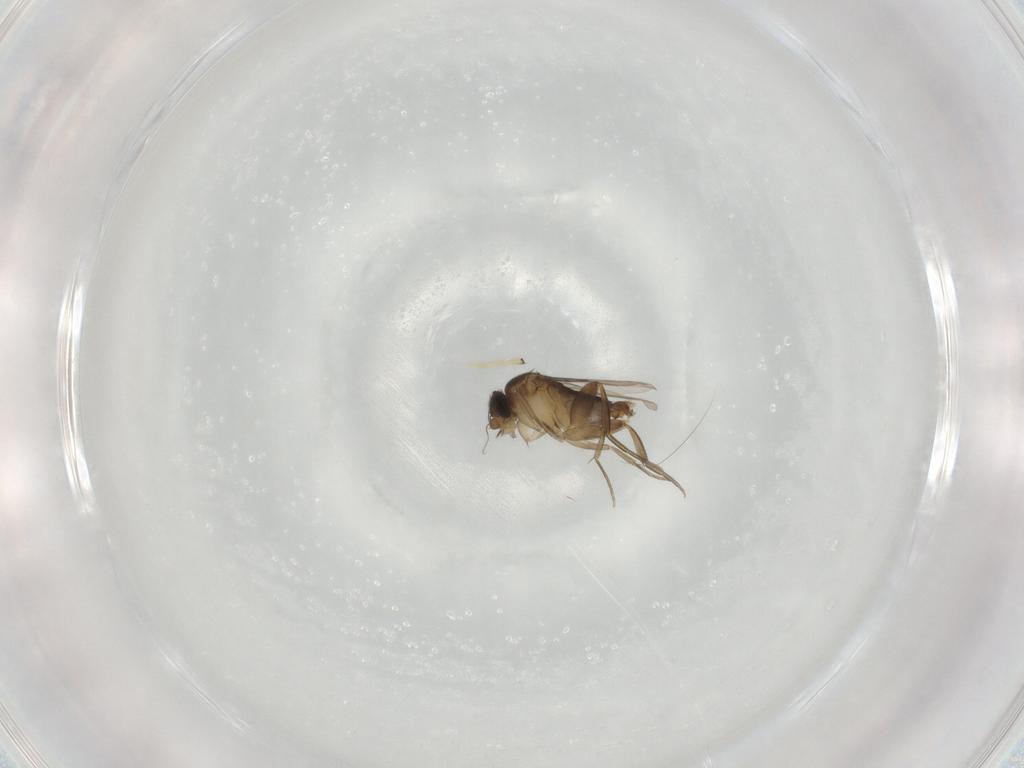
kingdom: Animalia
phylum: Arthropoda
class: Insecta
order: Diptera
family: Phoridae
